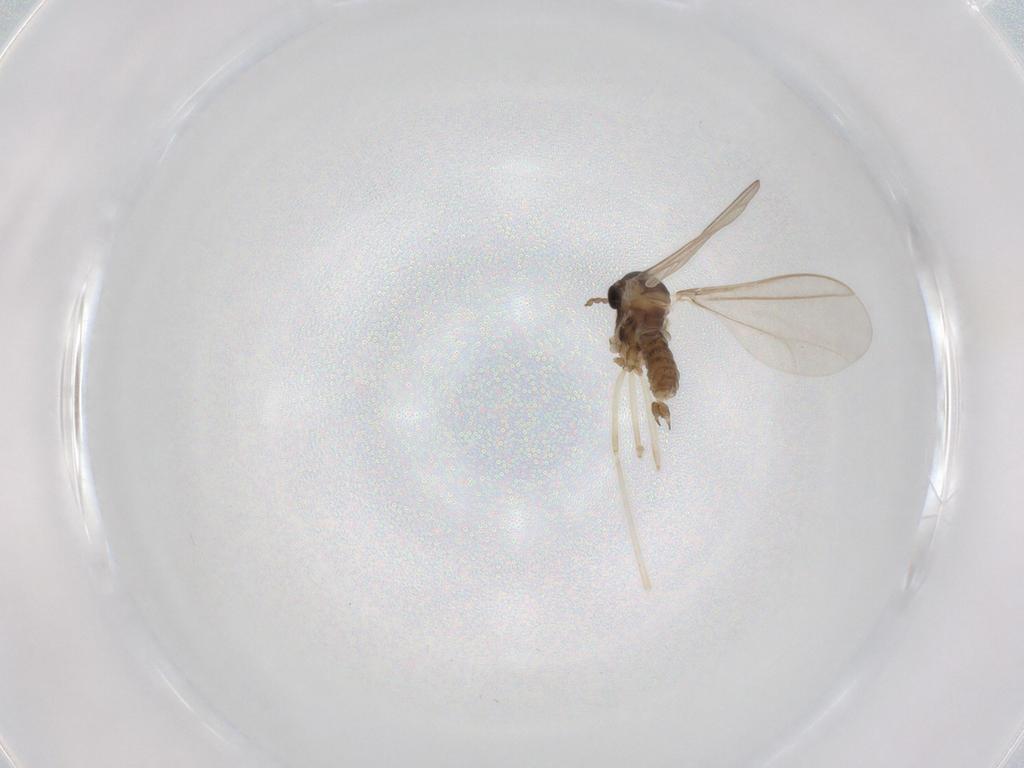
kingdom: Animalia
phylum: Arthropoda
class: Insecta
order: Diptera
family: Cecidomyiidae
